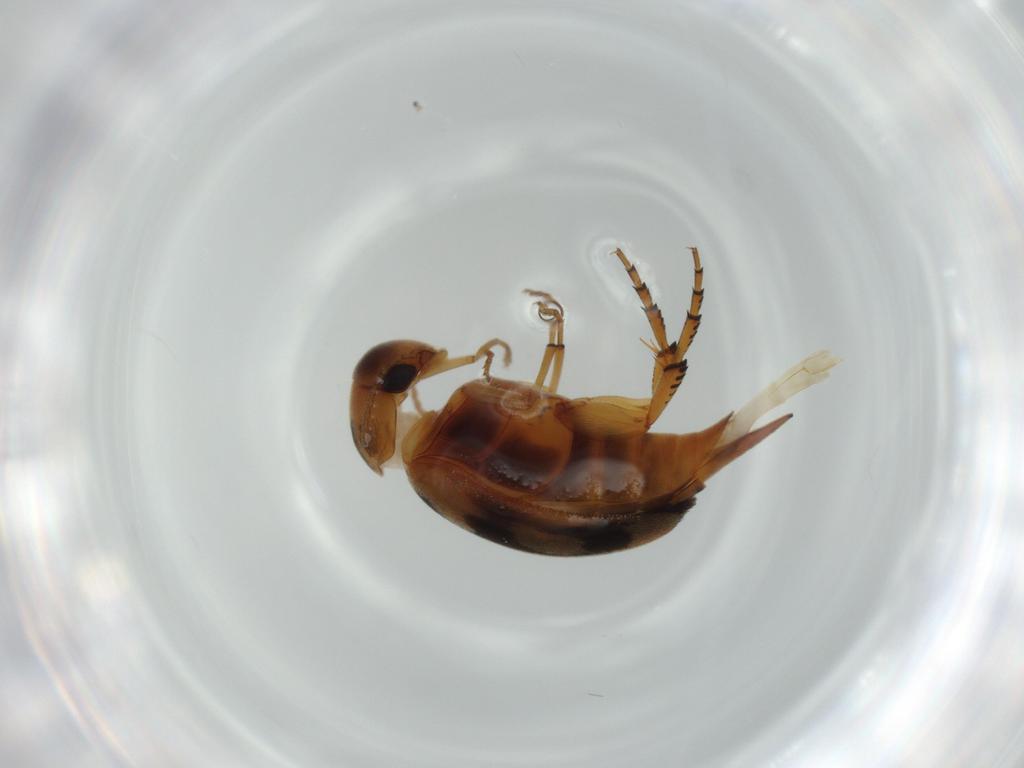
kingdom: Animalia
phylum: Arthropoda
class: Insecta
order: Coleoptera
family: Mordellidae
